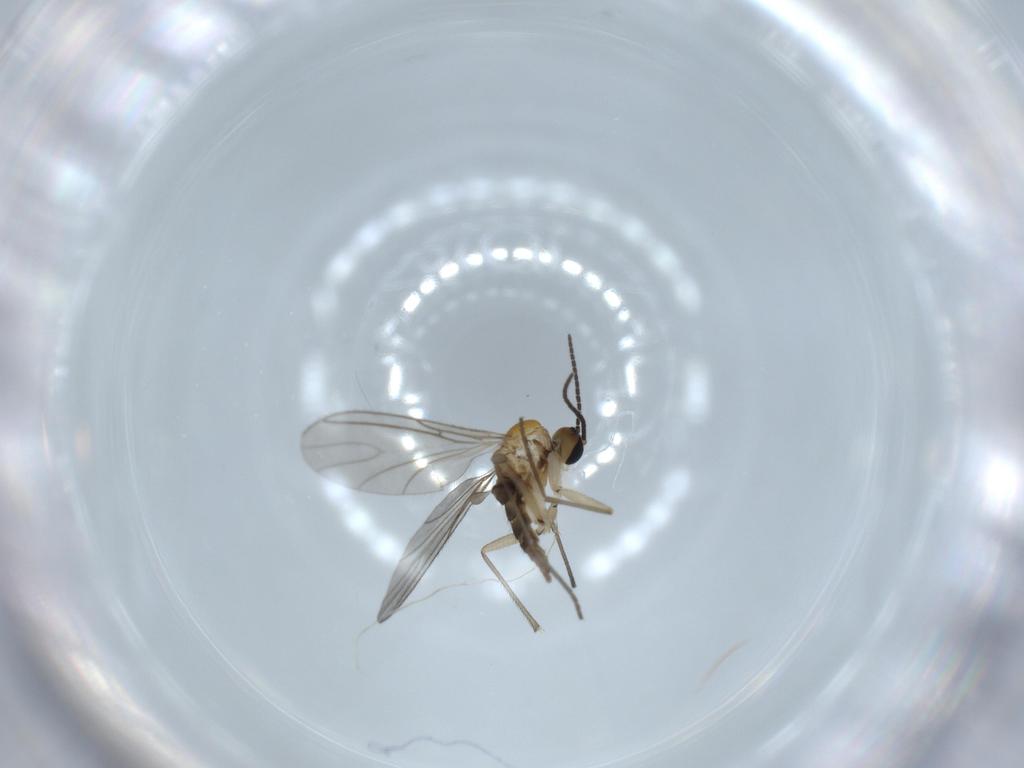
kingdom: Animalia
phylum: Arthropoda
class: Insecta
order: Diptera
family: Sciaridae
